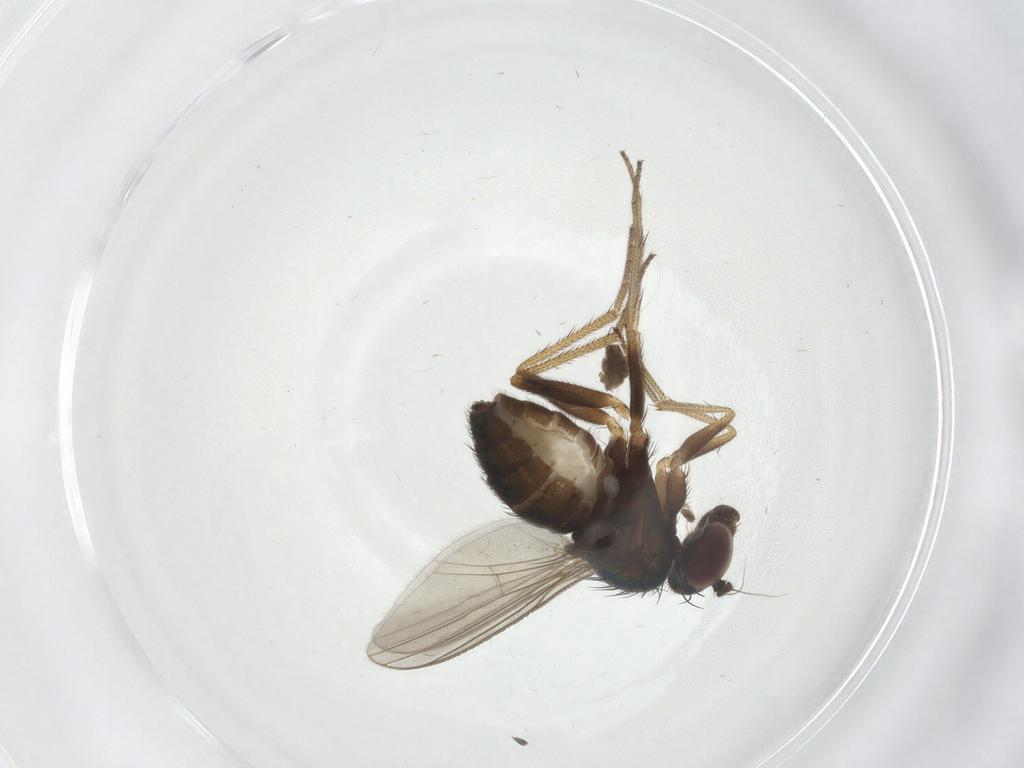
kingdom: Animalia
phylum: Arthropoda
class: Insecta
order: Diptera
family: Dolichopodidae
